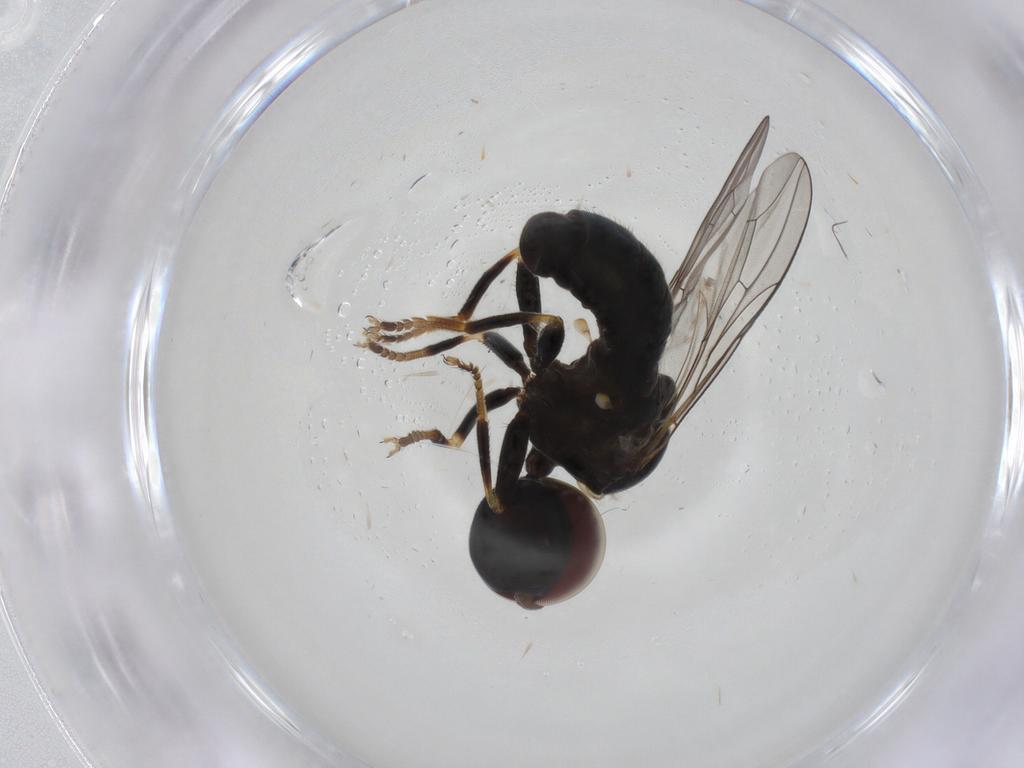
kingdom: Animalia
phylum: Arthropoda
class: Insecta
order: Diptera
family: Pipunculidae
